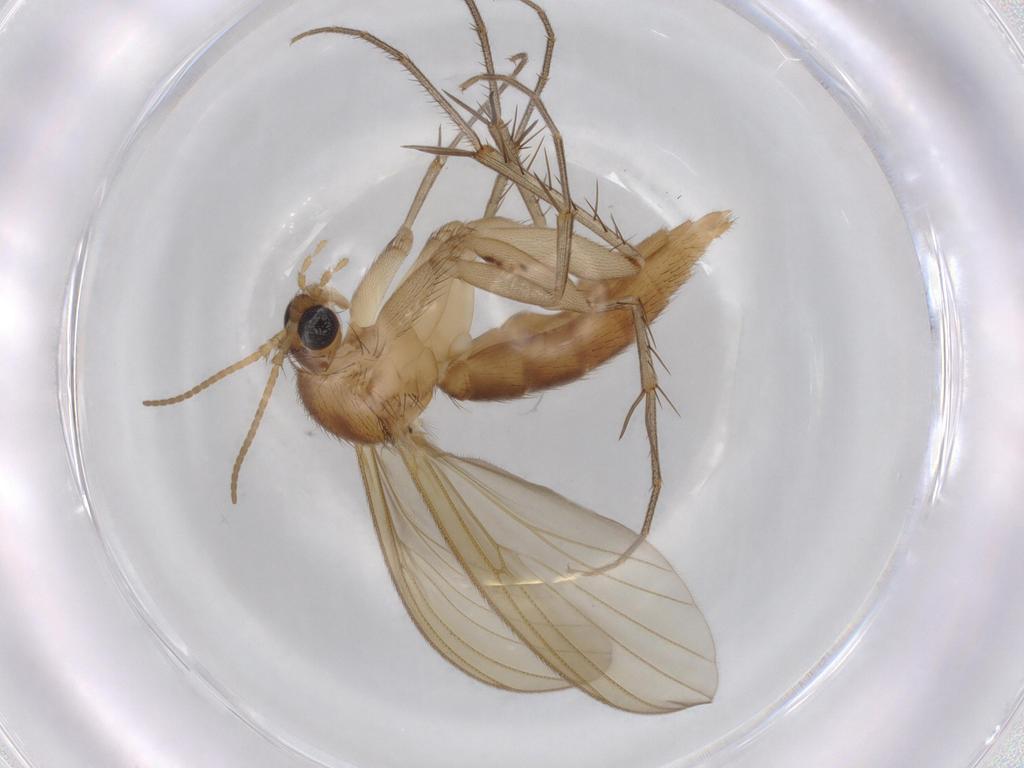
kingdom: Animalia
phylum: Arthropoda
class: Insecta
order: Diptera
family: Mycetophilidae
